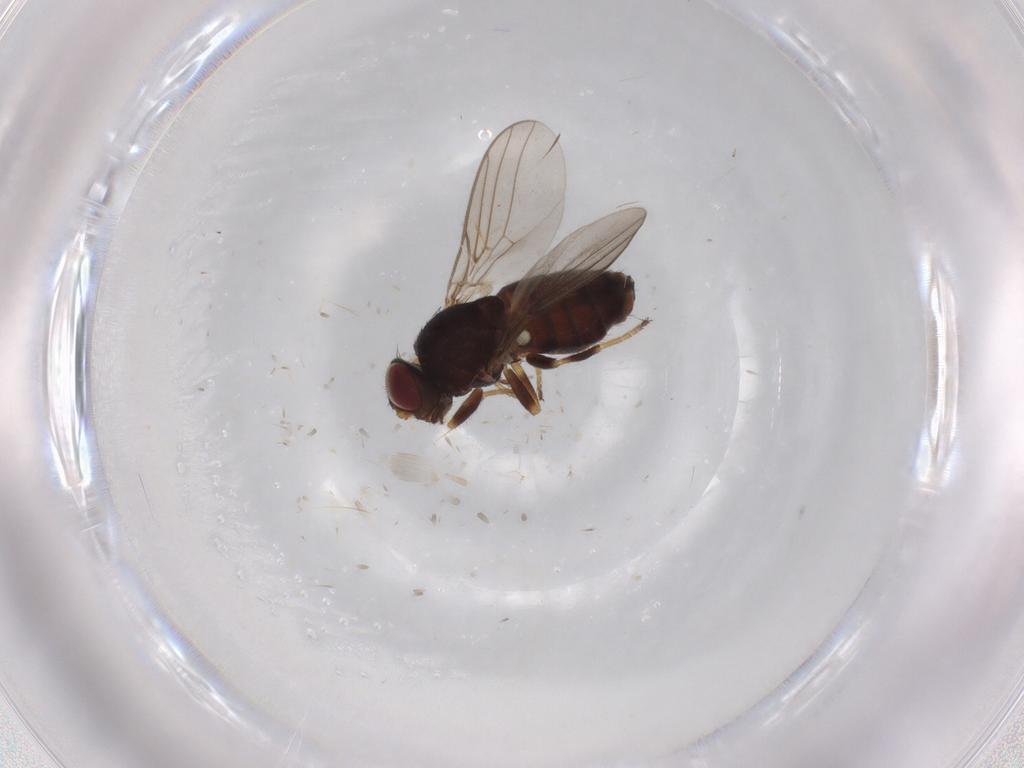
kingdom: Animalia
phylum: Arthropoda
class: Insecta
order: Diptera
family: Chloropidae
